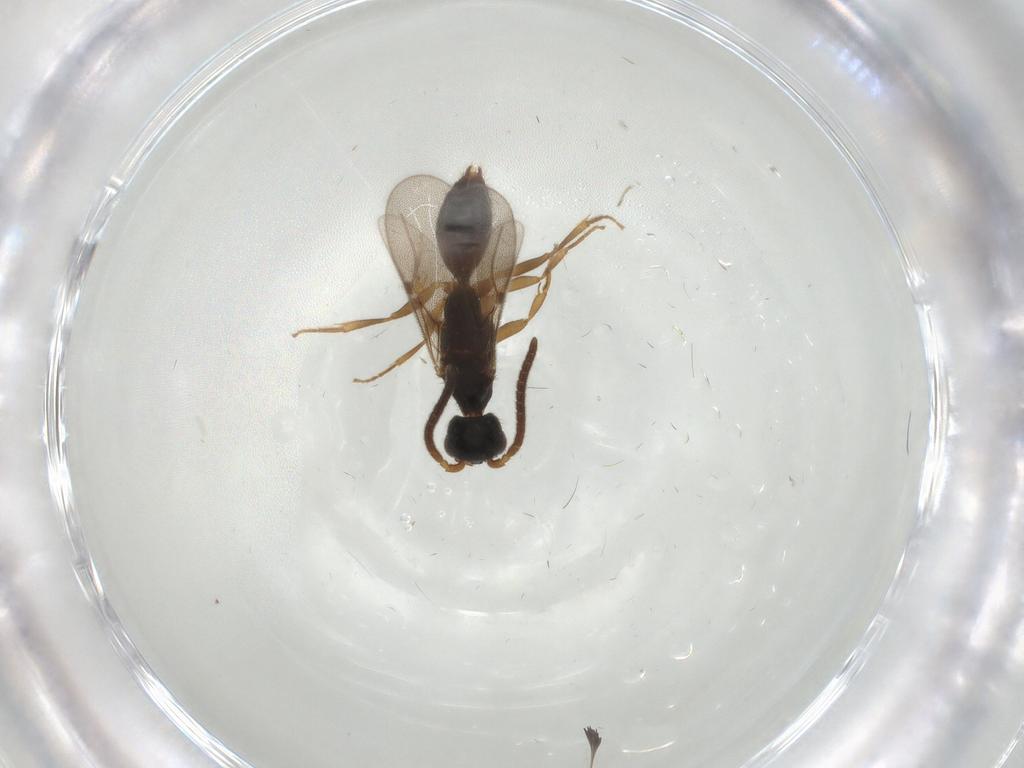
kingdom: Animalia
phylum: Arthropoda
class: Insecta
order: Hymenoptera
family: Bethylidae
